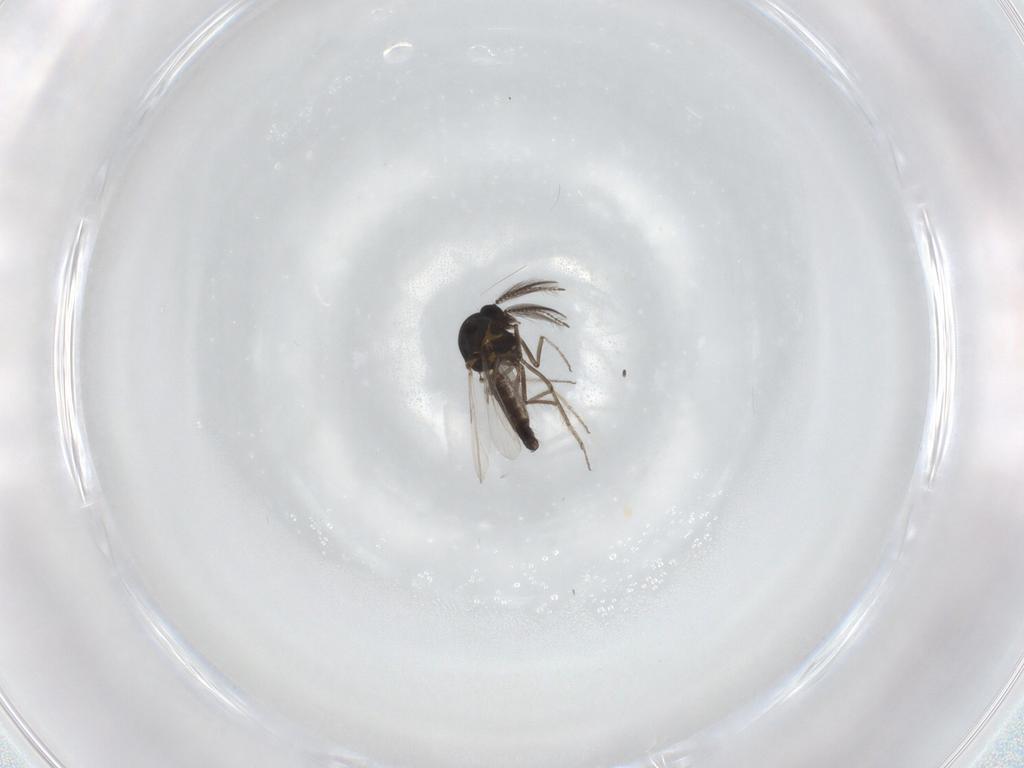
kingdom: Animalia
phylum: Arthropoda
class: Insecta
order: Diptera
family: Ceratopogonidae
